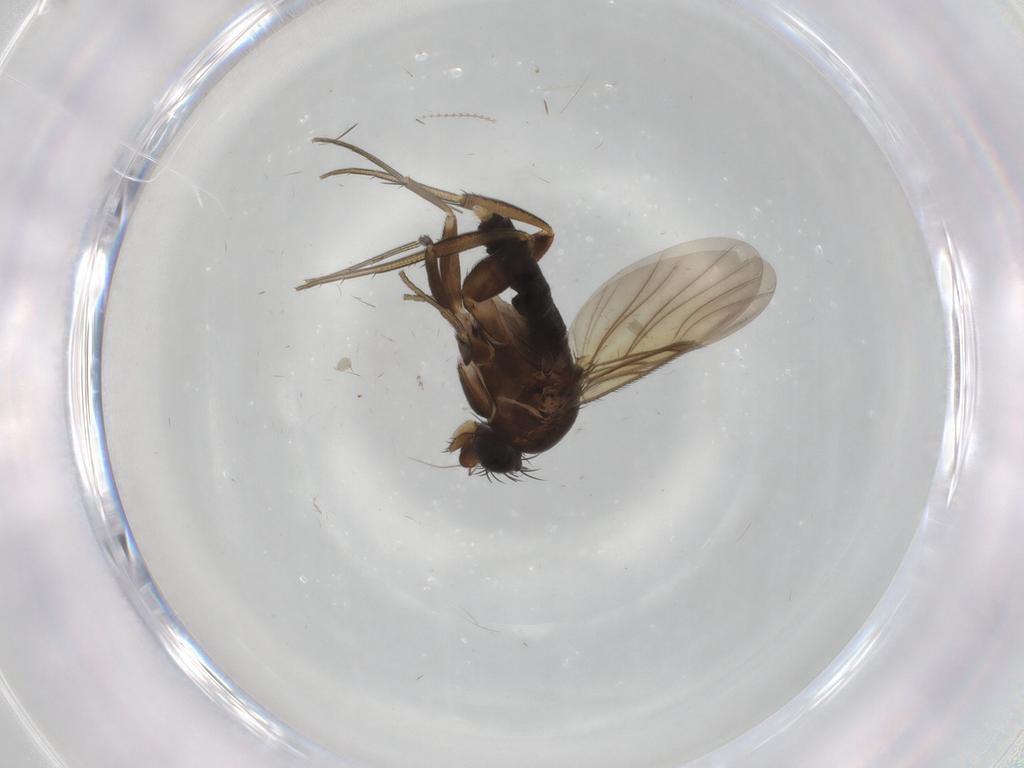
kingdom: Animalia
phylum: Arthropoda
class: Insecta
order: Diptera
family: Phoridae
